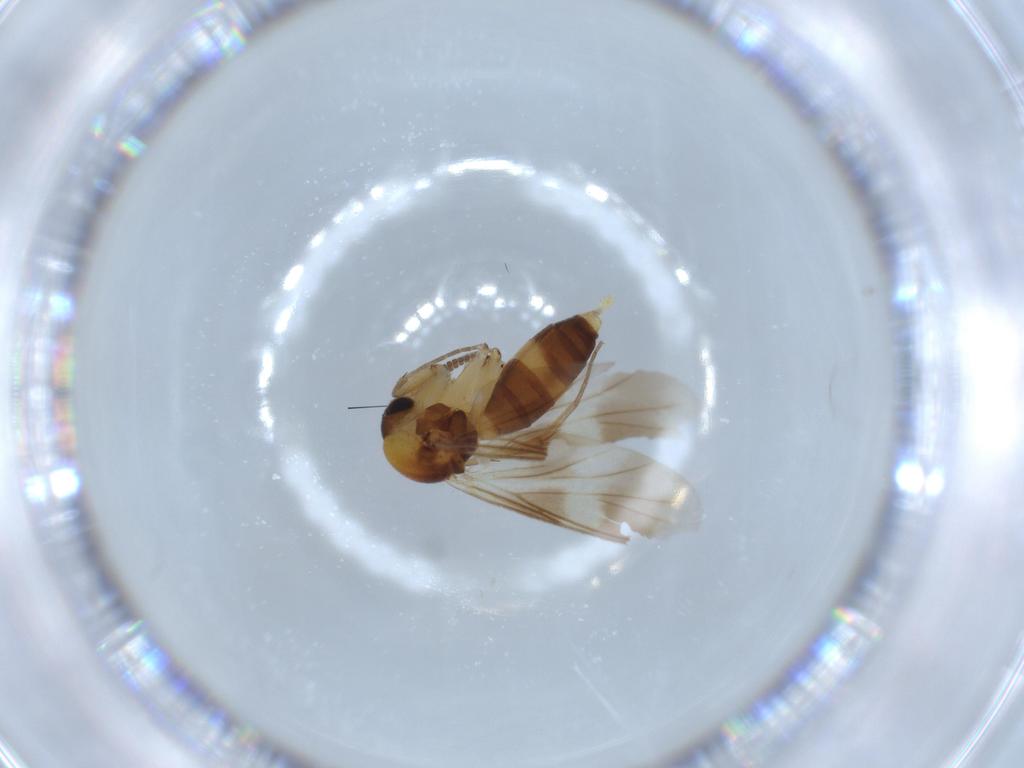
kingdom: Animalia
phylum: Arthropoda
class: Insecta
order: Diptera
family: Mycetophilidae
